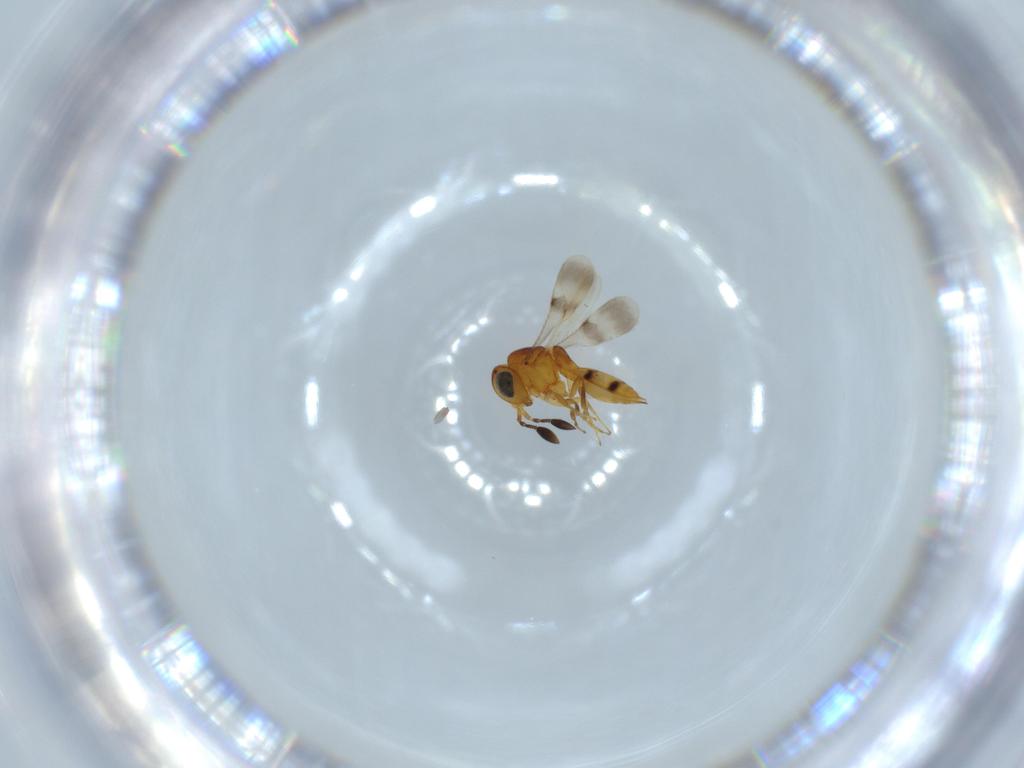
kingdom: Animalia
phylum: Arthropoda
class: Insecta
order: Hymenoptera
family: Scelionidae
